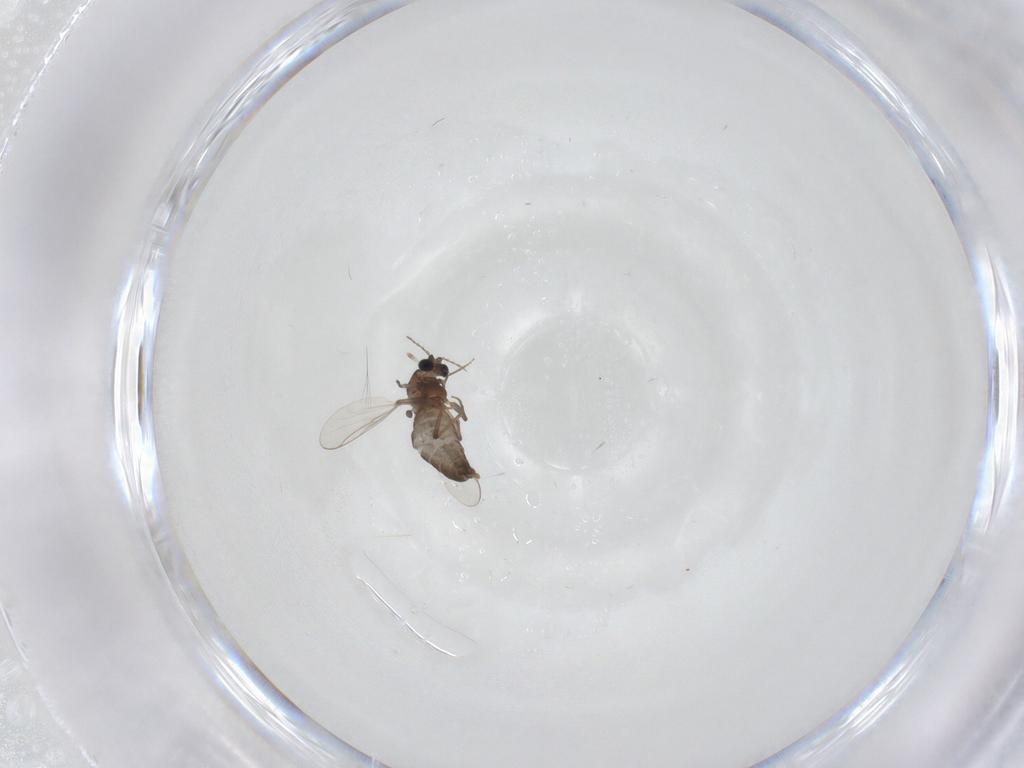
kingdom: Animalia
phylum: Arthropoda
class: Insecta
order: Diptera
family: Chironomidae
